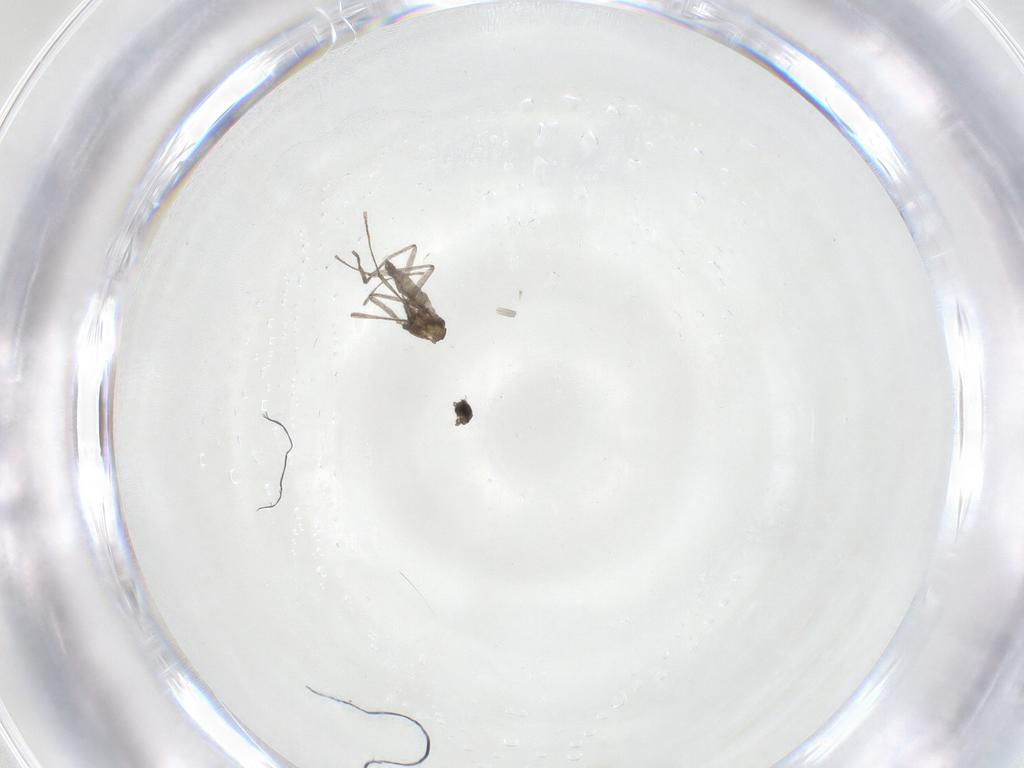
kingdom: Animalia
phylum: Arthropoda
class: Insecta
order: Diptera
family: Cecidomyiidae
